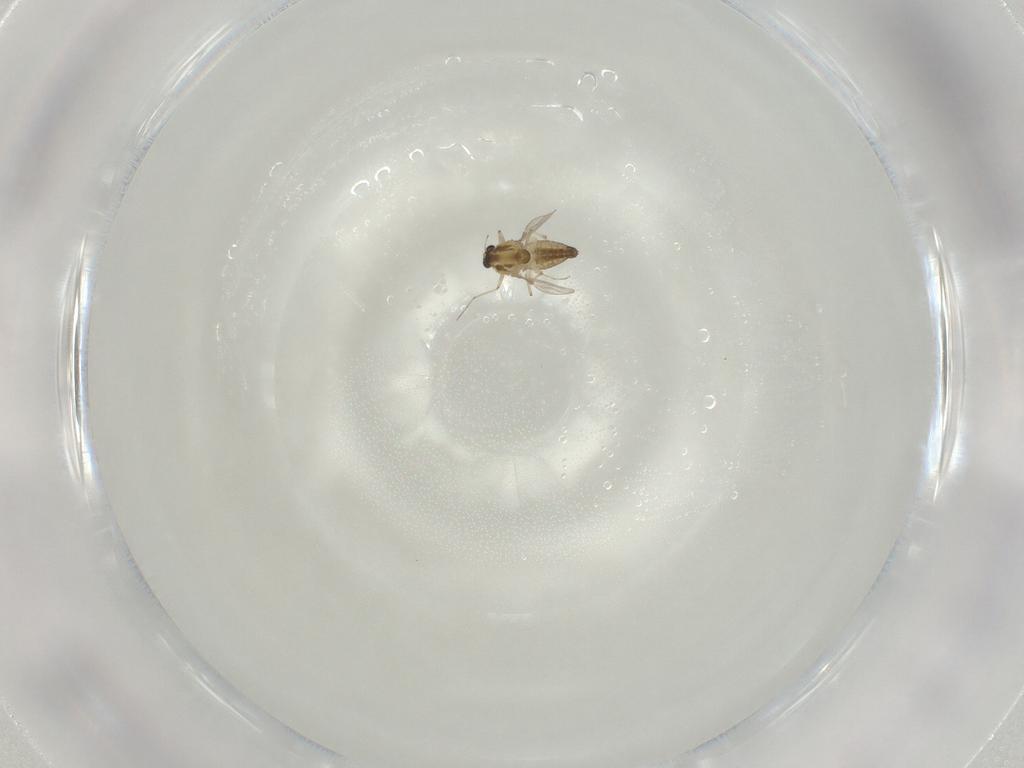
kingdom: Animalia
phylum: Arthropoda
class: Insecta
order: Diptera
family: Chironomidae
